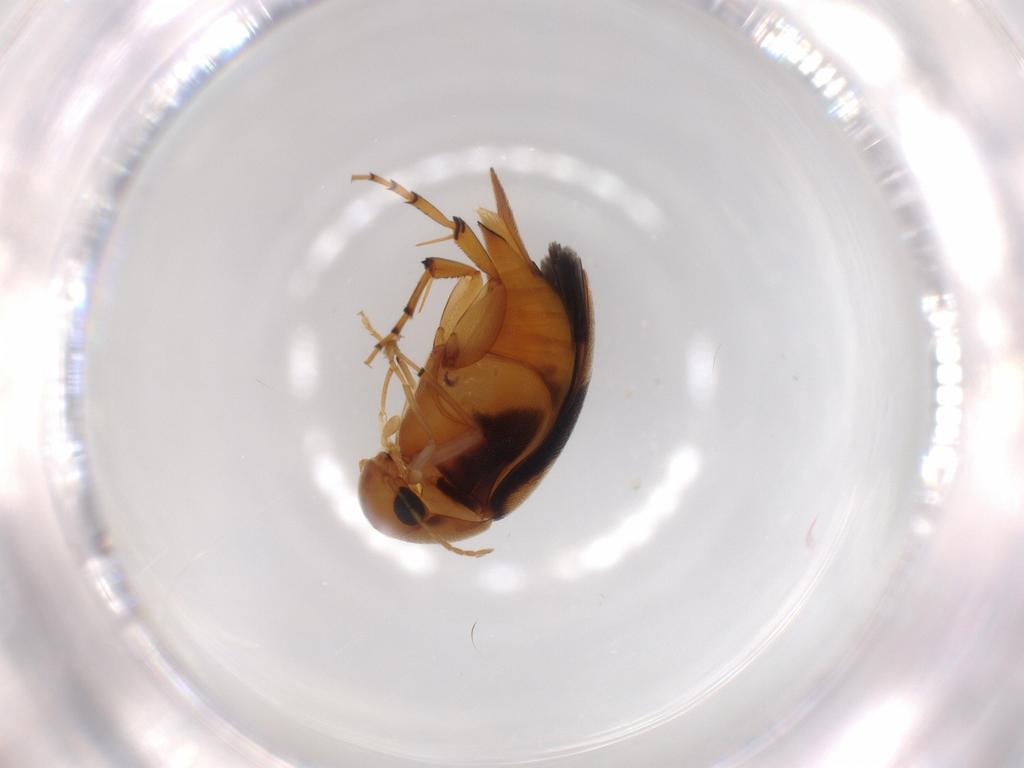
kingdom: Animalia
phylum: Arthropoda
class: Insecta
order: Coleoptera
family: Mordellidae
